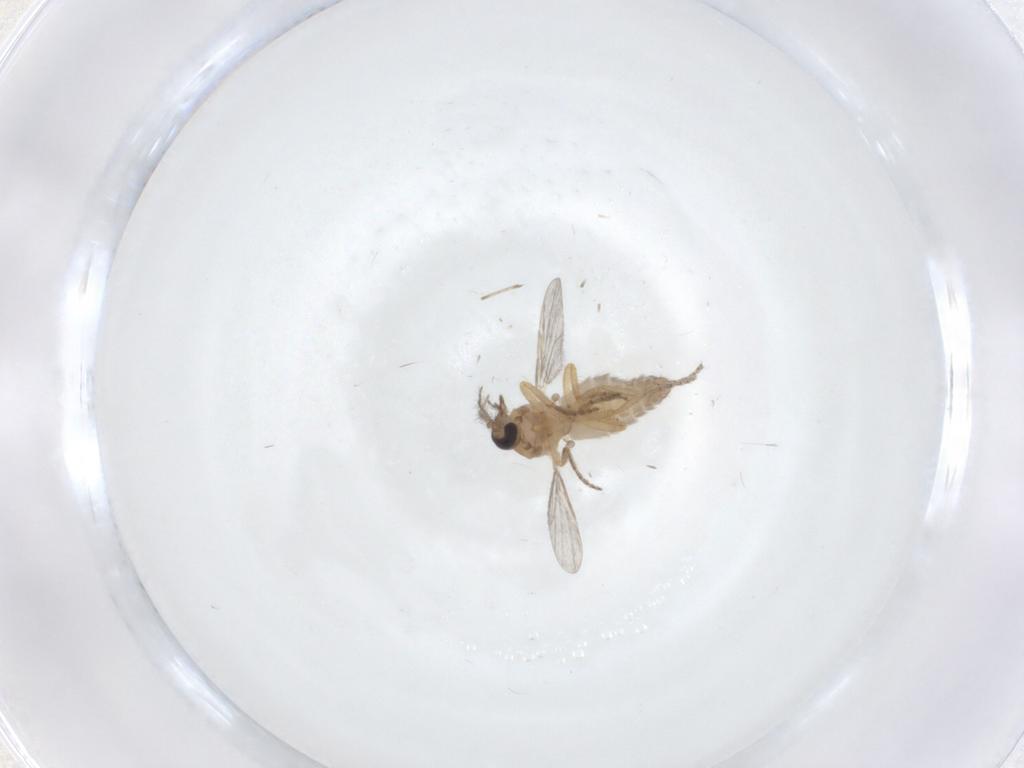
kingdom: Animalia
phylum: Arthropoda
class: Insecta
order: Diptera
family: Ceratopogonidae
